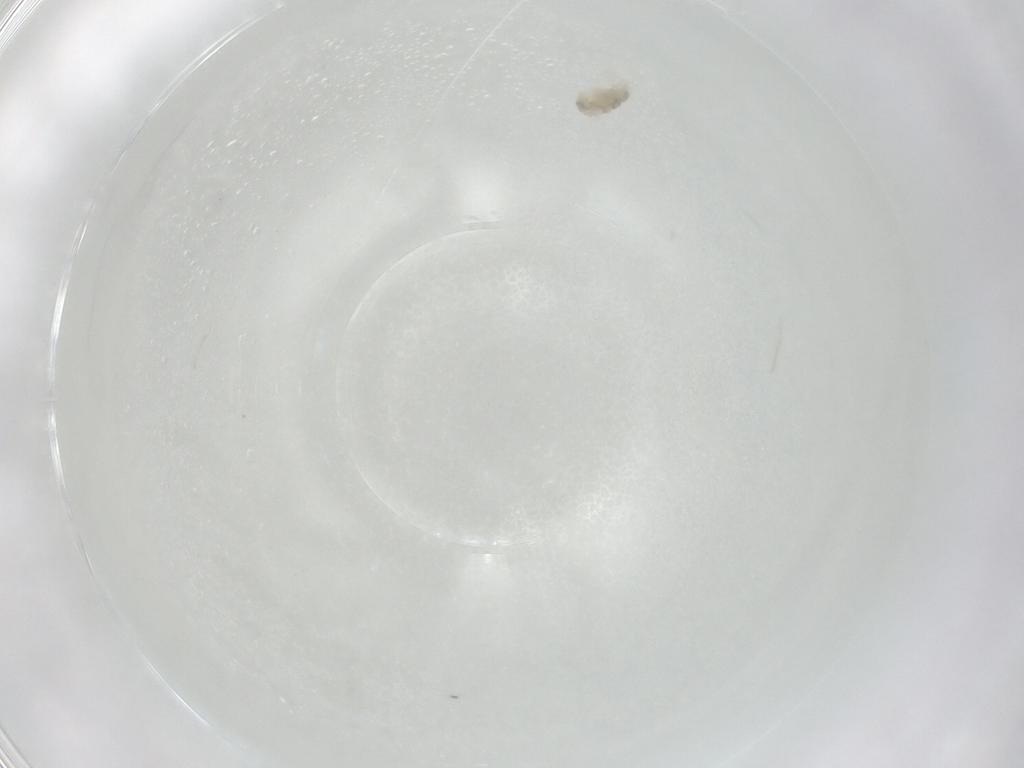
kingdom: Animalia
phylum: Arthropoda
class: Arachnida
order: Trombidiformes
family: Eupodidae
